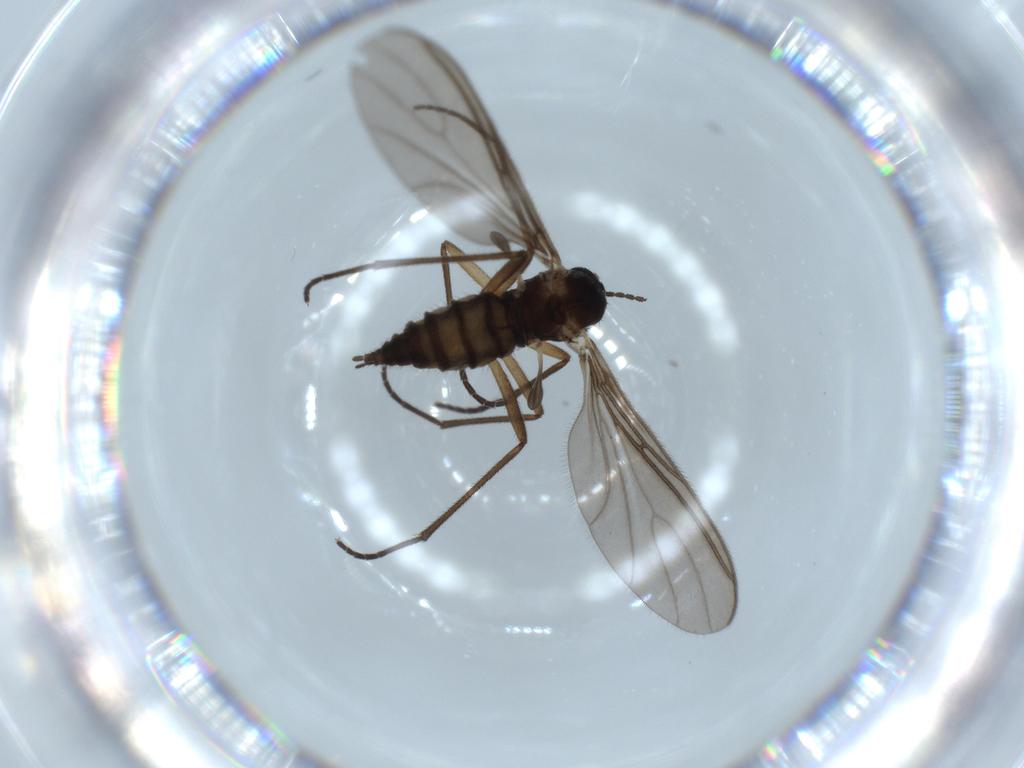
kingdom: Animalia
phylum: Arthropoda
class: Insecta
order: Diptera
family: Sciaridae
